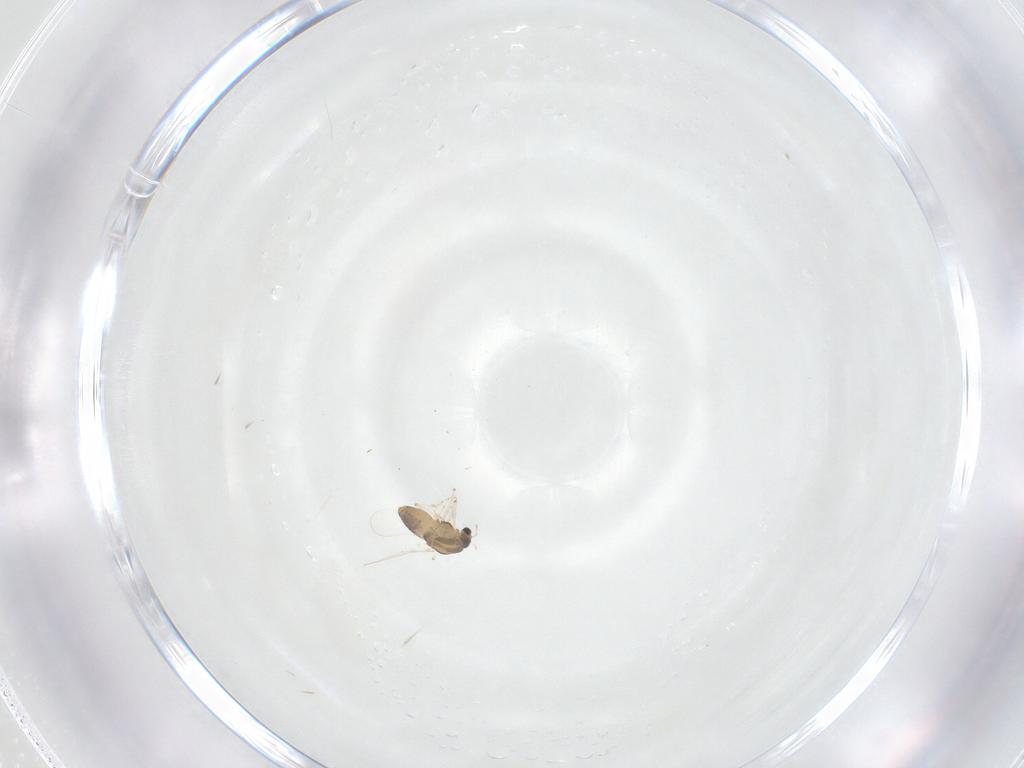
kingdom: Animalia
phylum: Arthropoda
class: Insecta
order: Diptera
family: Chironomidae
